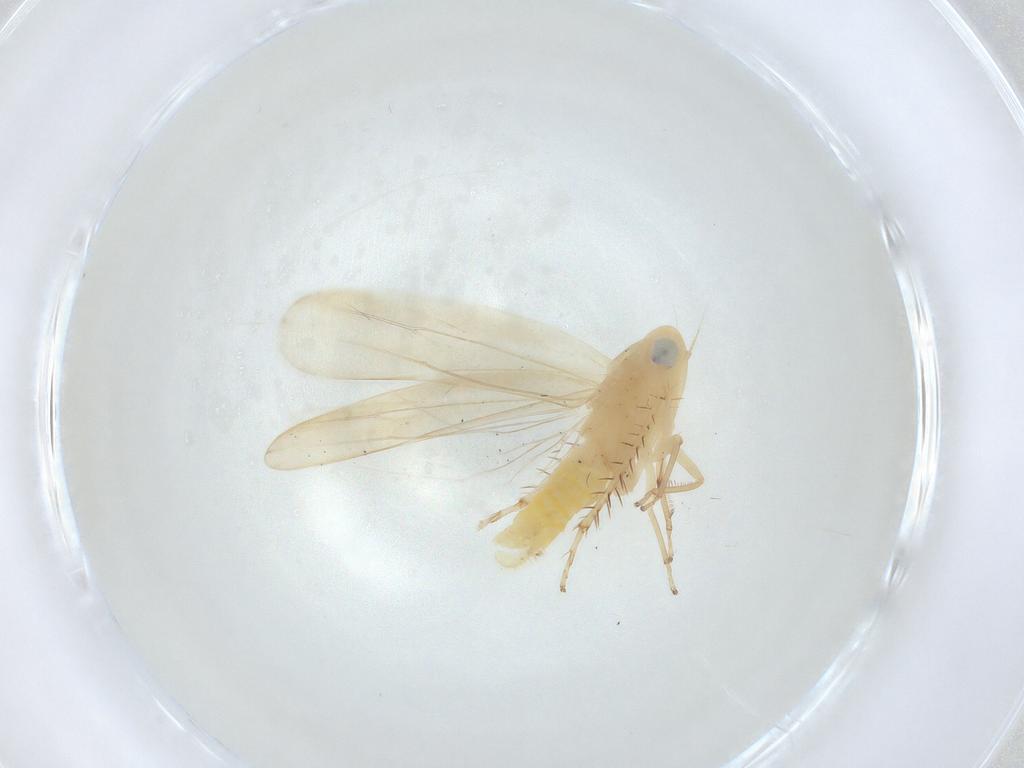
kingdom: Animalia
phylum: Arthropoda
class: Insecta
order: Hemiptera
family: Cicadellidae
